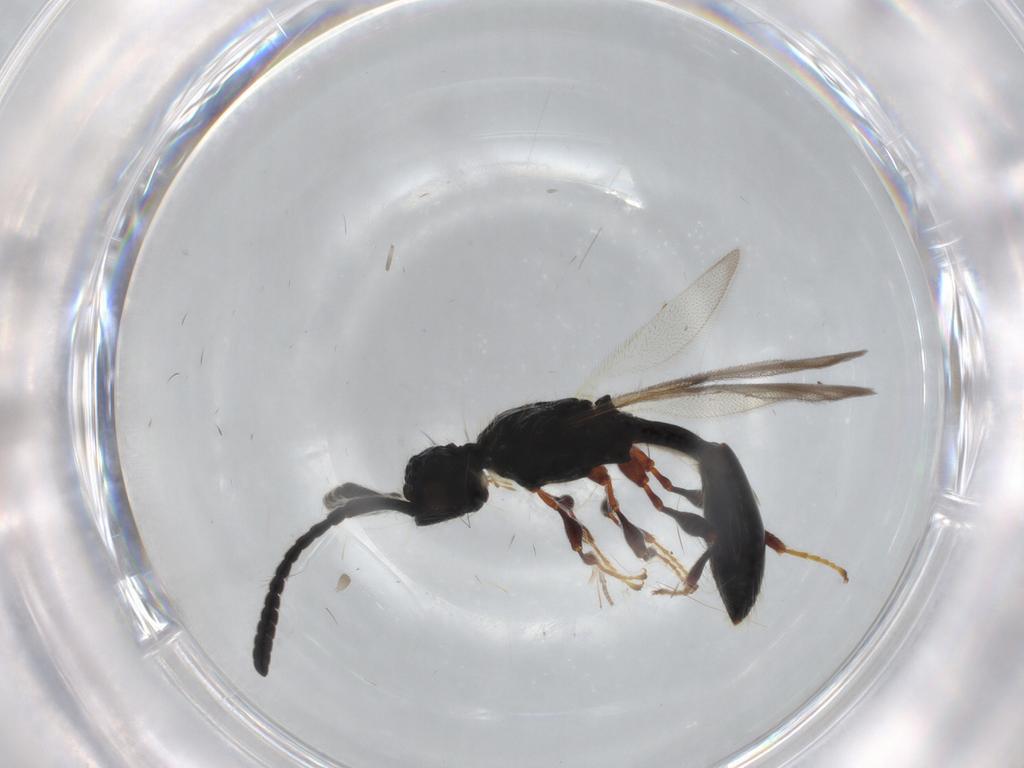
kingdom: Animalia
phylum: Arthropoda
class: Insecta
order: Hymenoptera
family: Diapriidae
